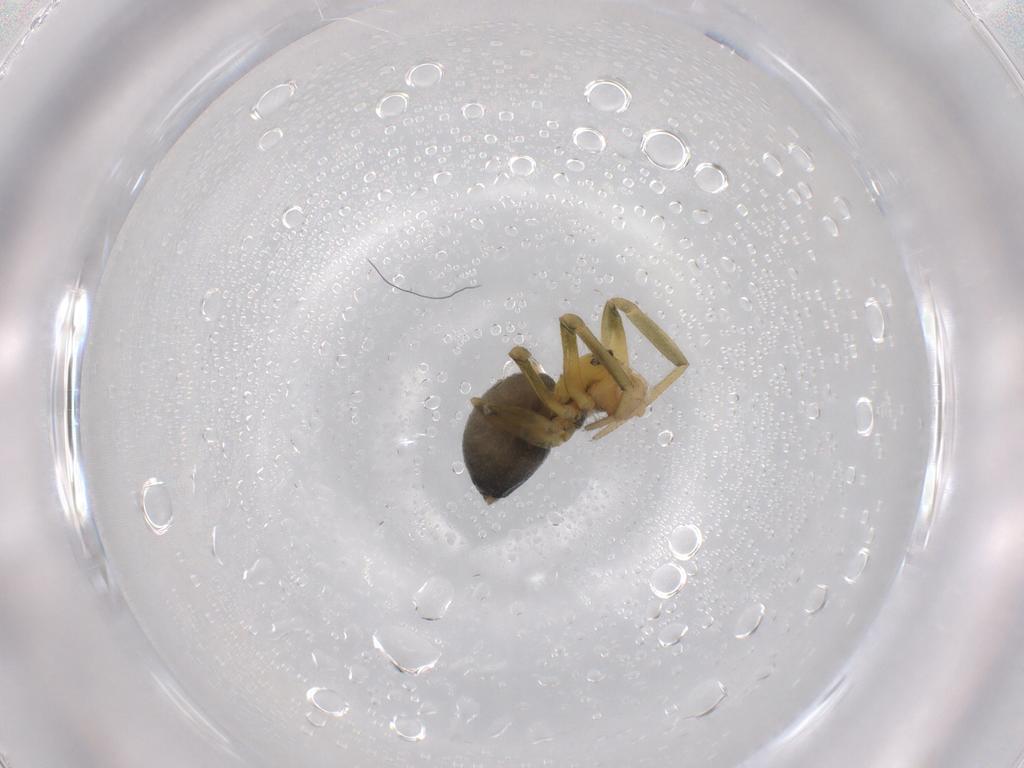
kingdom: Animalia
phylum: Arthropoda
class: Arachnida
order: Araneae
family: Linyphiidae
